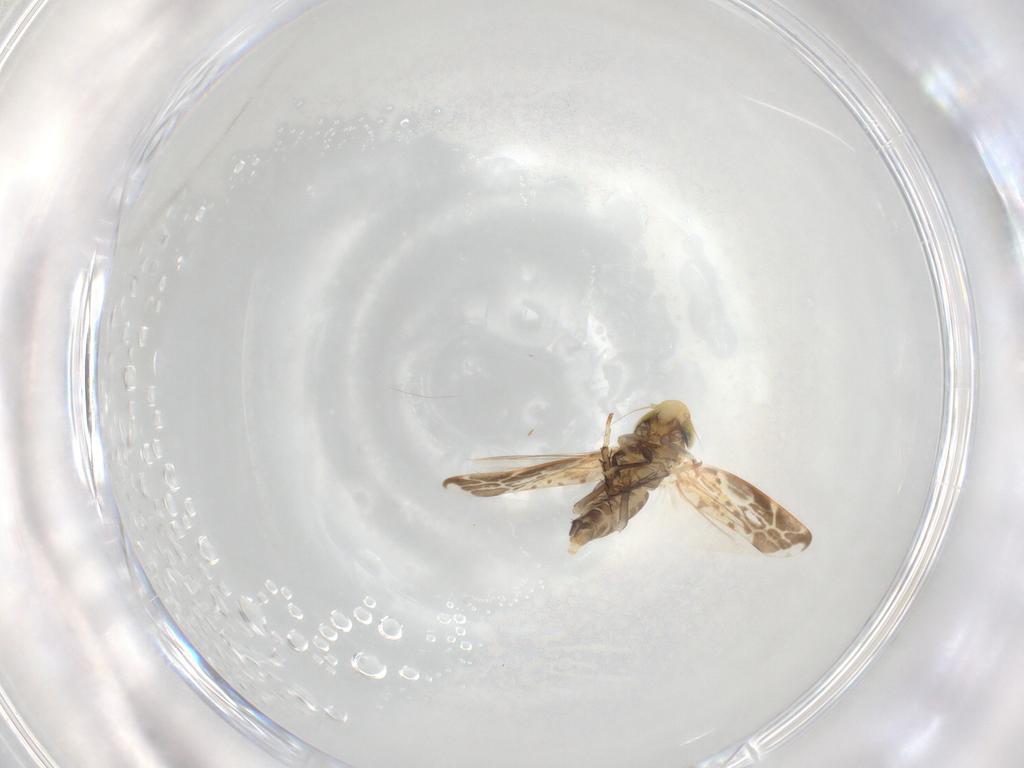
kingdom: Animalia
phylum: Arthropoda
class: Insecta
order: Hemiptera
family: Cicadellidae
